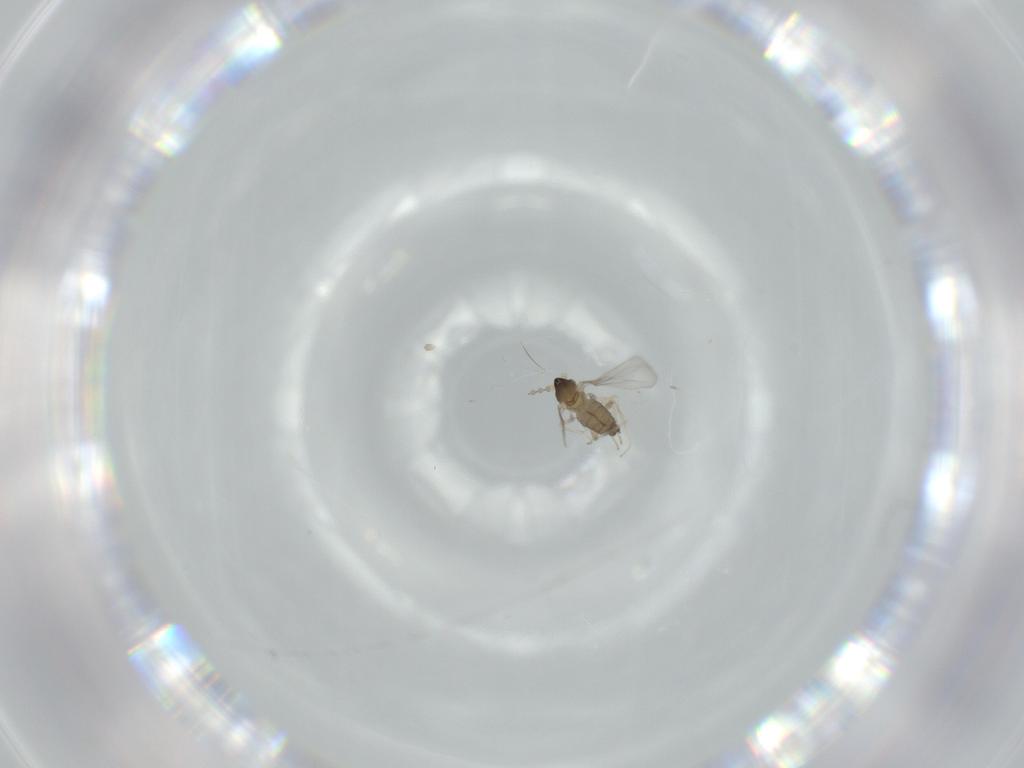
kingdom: Animalia
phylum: Arthropoda
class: Insecta
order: Diptera
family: Cecidomyiidae
